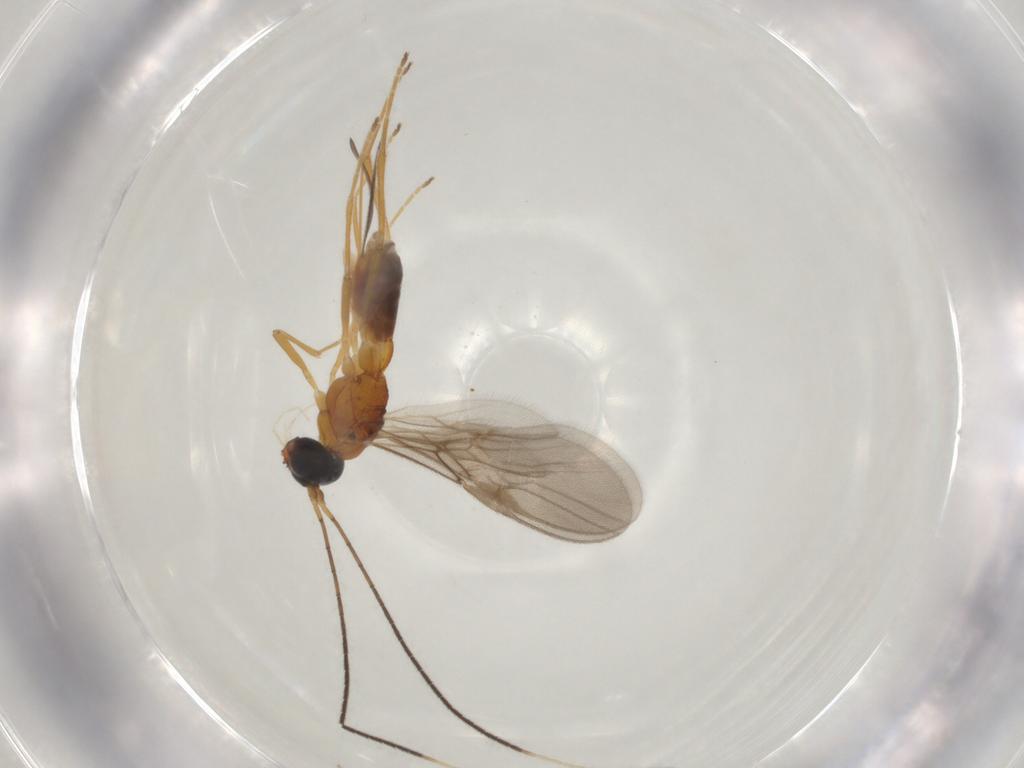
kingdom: Animalia
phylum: Arthropoda
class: Insecta
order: Hymenoptera
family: Braconidae
